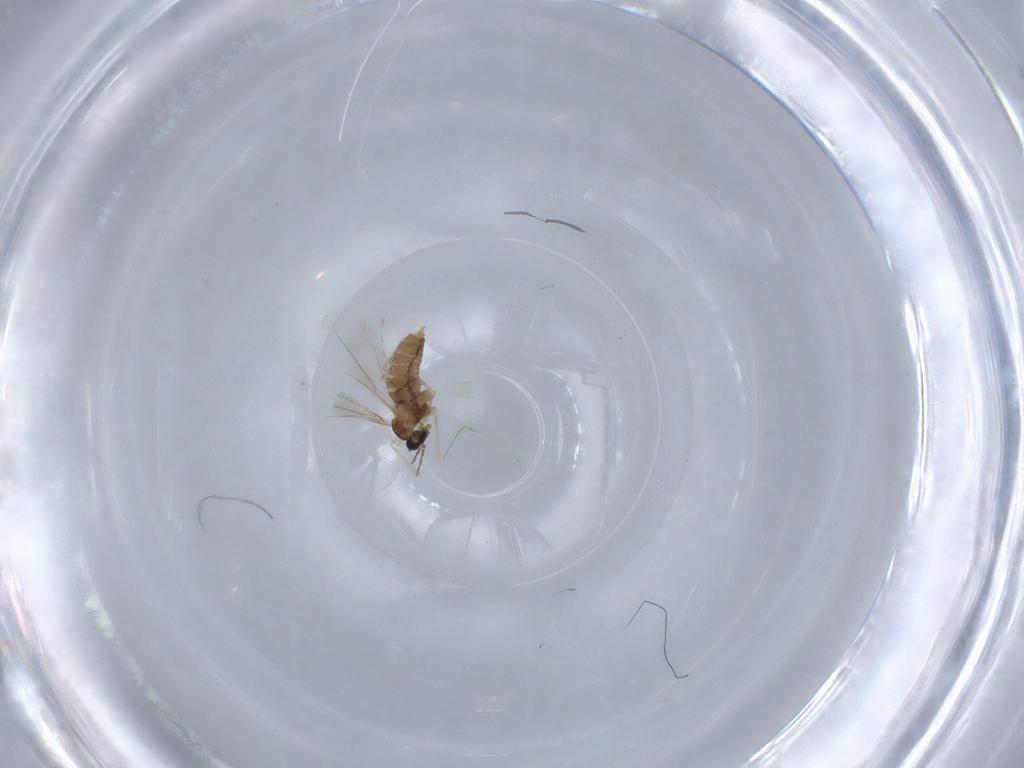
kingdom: Animalia
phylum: Arthropoda
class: Insecta
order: Diptera
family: Cecidomyiidae
